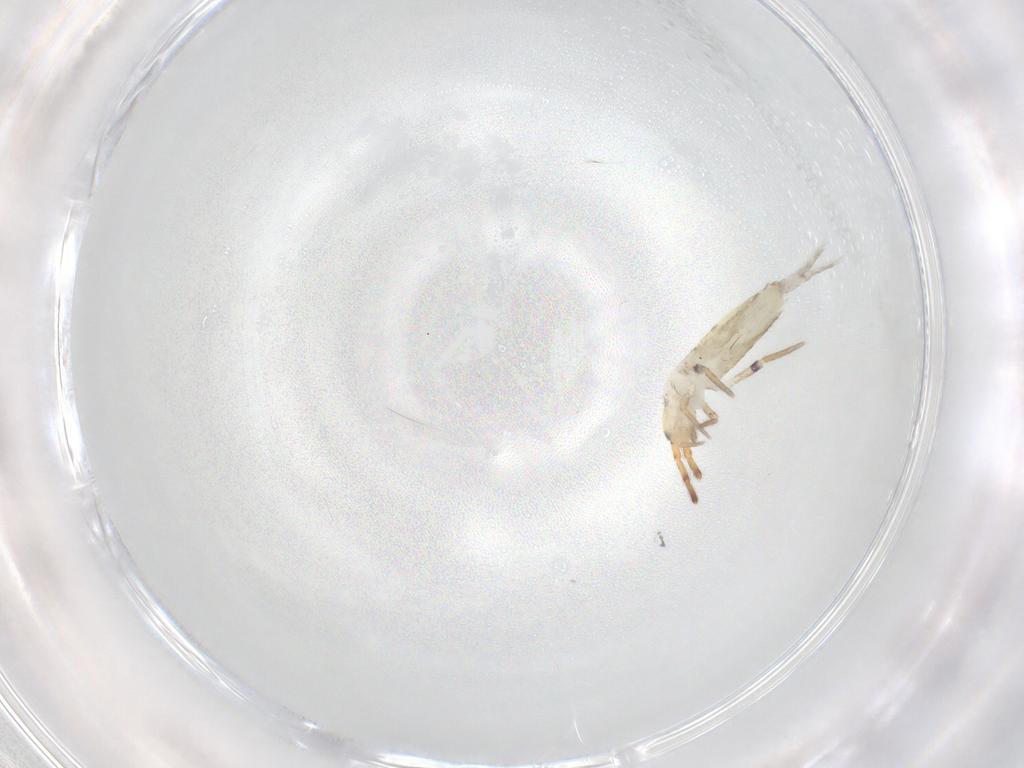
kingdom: Animalia
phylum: Arthropoda
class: Collembola
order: Entomobryomorpha
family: Entomobryidae
